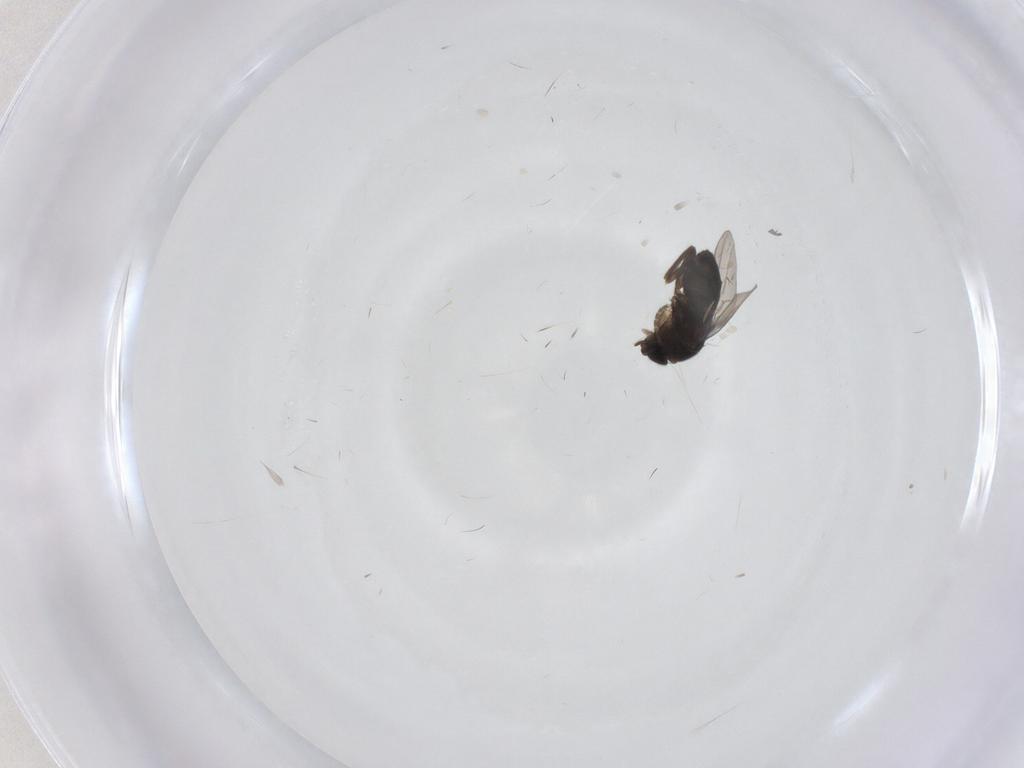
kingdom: Animalia
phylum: Arthropoda
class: Insecta
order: Diptera
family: Phoridae
